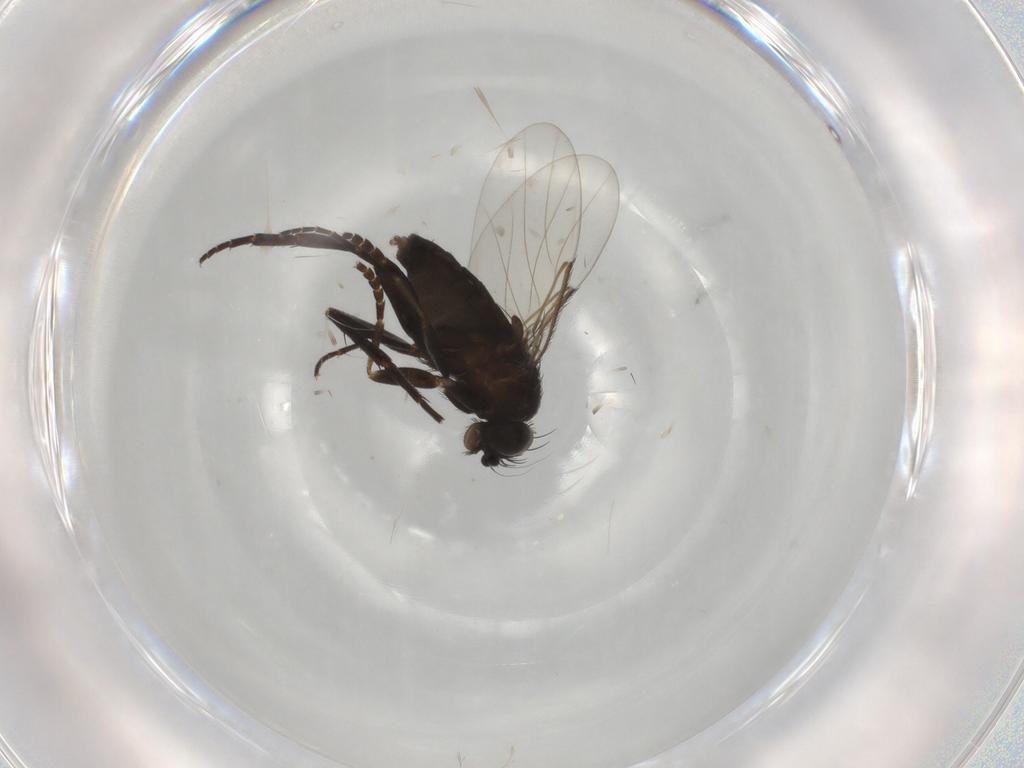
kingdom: Animalia
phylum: Arthropoda
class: Insecta
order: Diptera
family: Phoridae
